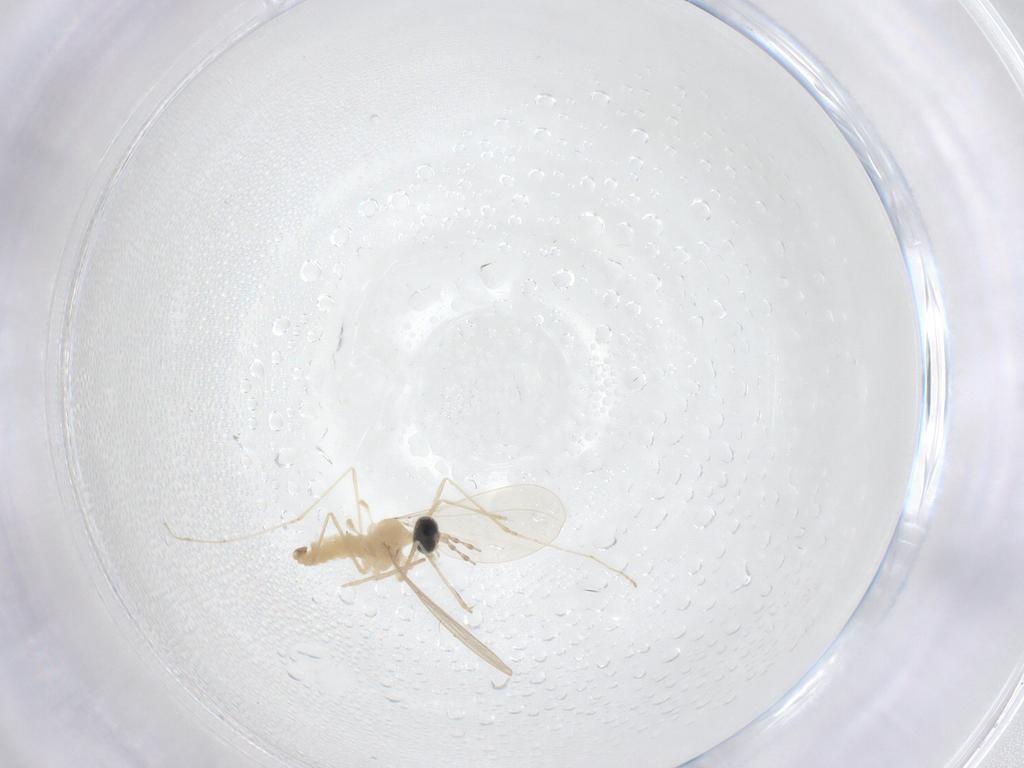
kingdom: Animalia
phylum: Arthropoda
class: Insecta
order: Diptera
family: Cecidomyiidae
